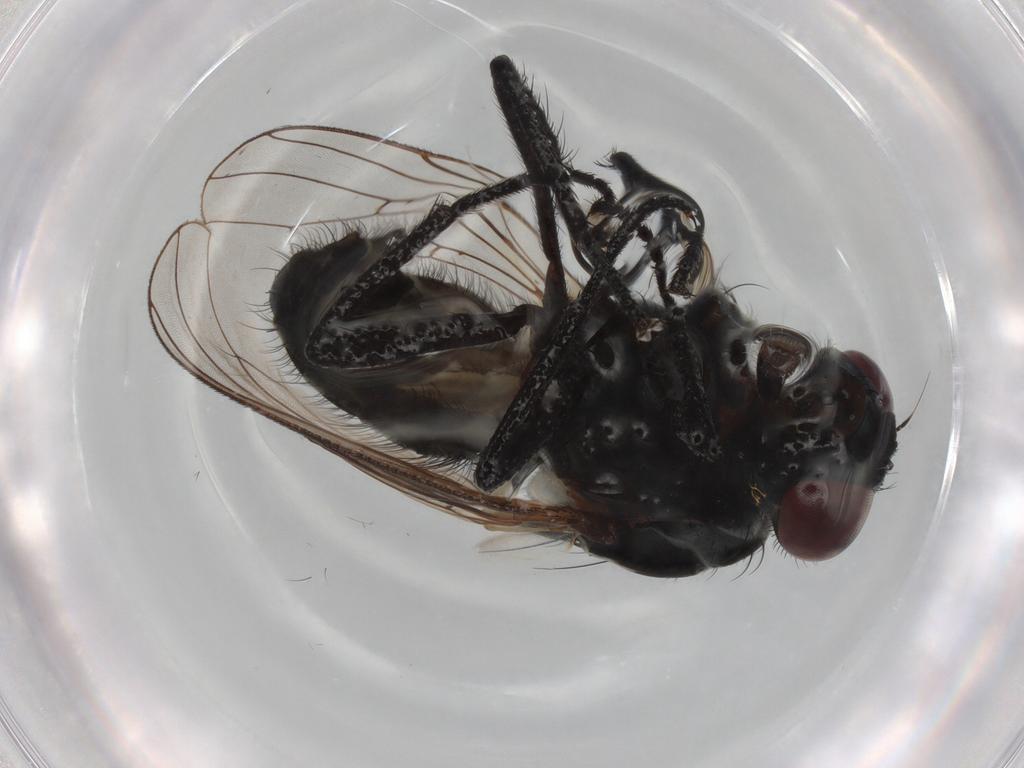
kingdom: Animalia
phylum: Arthropoda
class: Insecta
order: Diptera
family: Anthomyiidae
